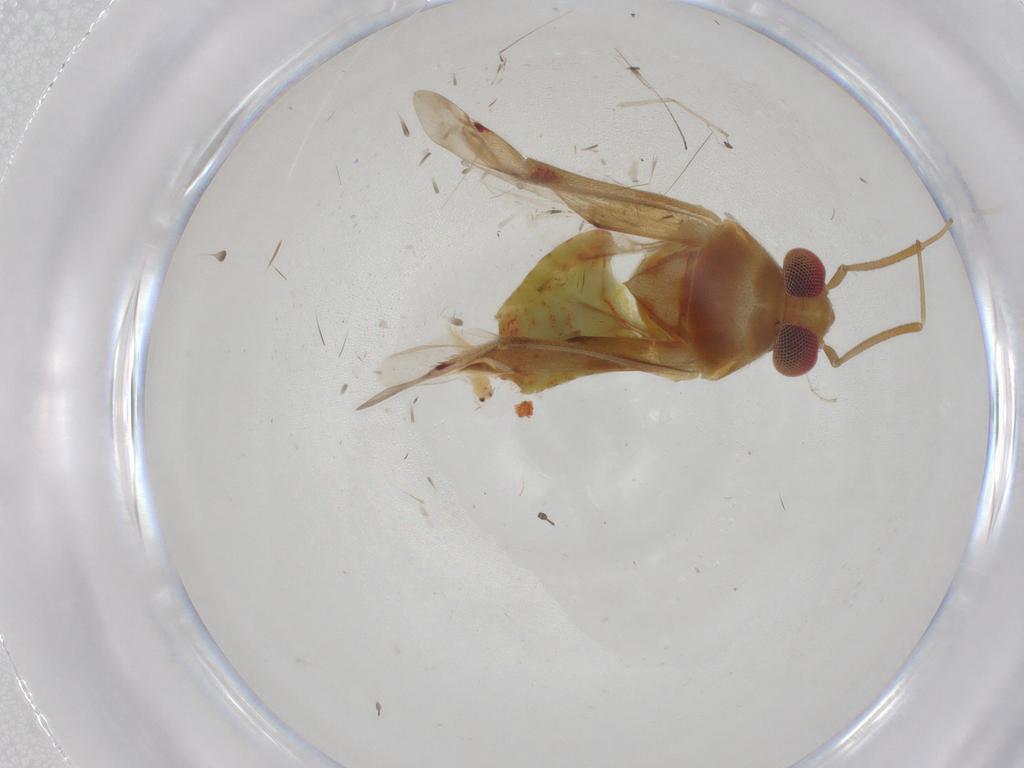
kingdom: Animalia
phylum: Arthropoda
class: Insecta
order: Hemiptera
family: Miridae
